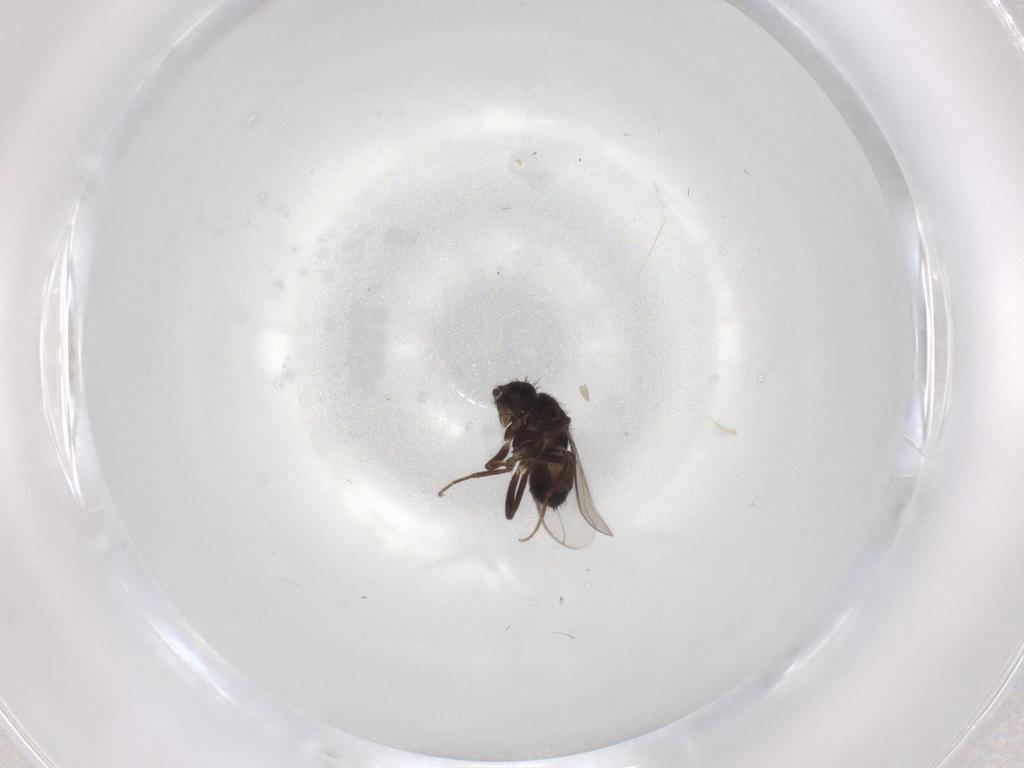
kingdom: Animalia
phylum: Arthropoda
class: Insecta
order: Diptera
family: Sphaeroceridae
